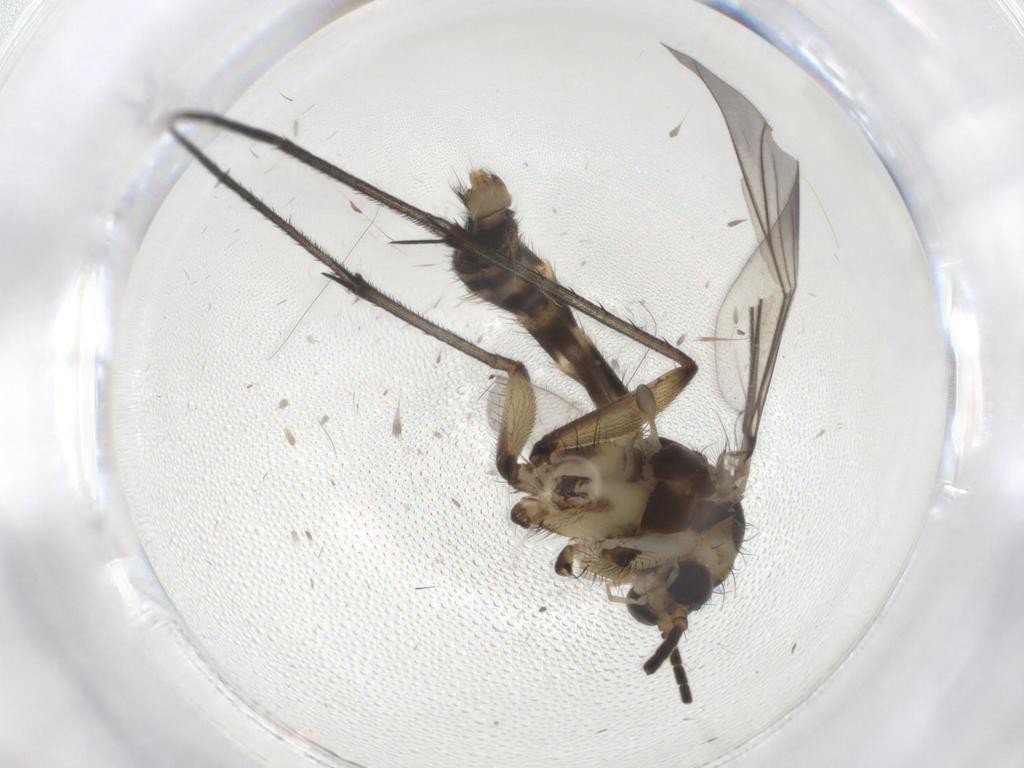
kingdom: Animalia
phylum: Arthropoda
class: Insecta
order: Diptera
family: Mycetophilidae
